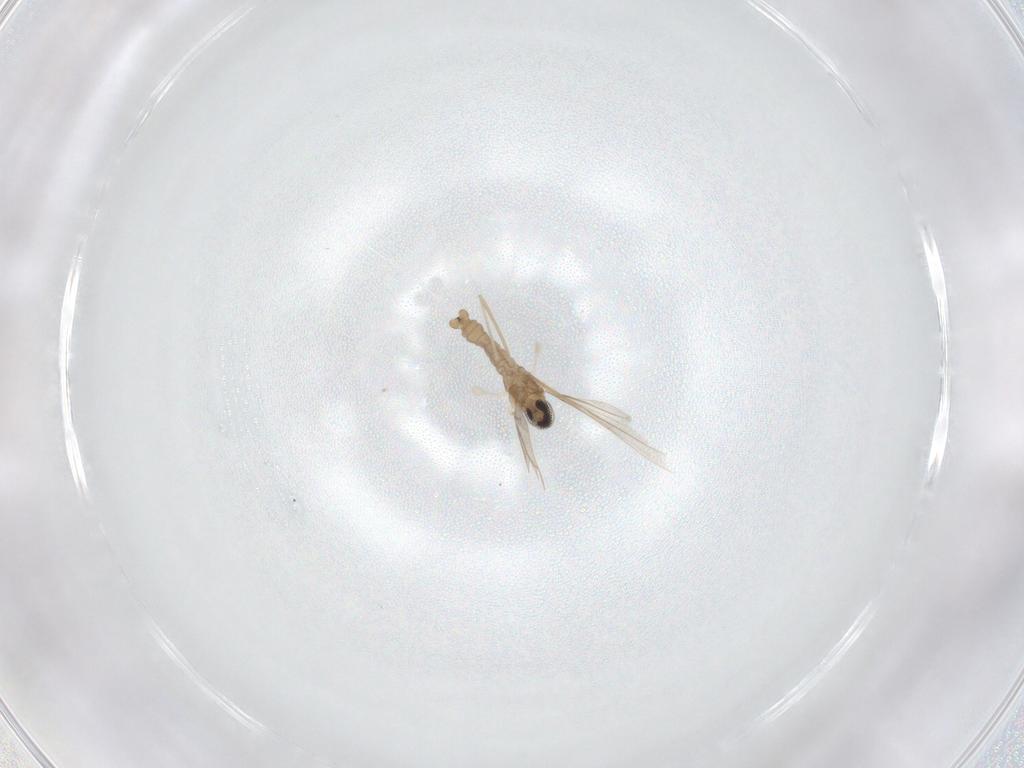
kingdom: Animalia
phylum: Arthropoda
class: Insecta
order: Diptera
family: Cecidomyiidae
